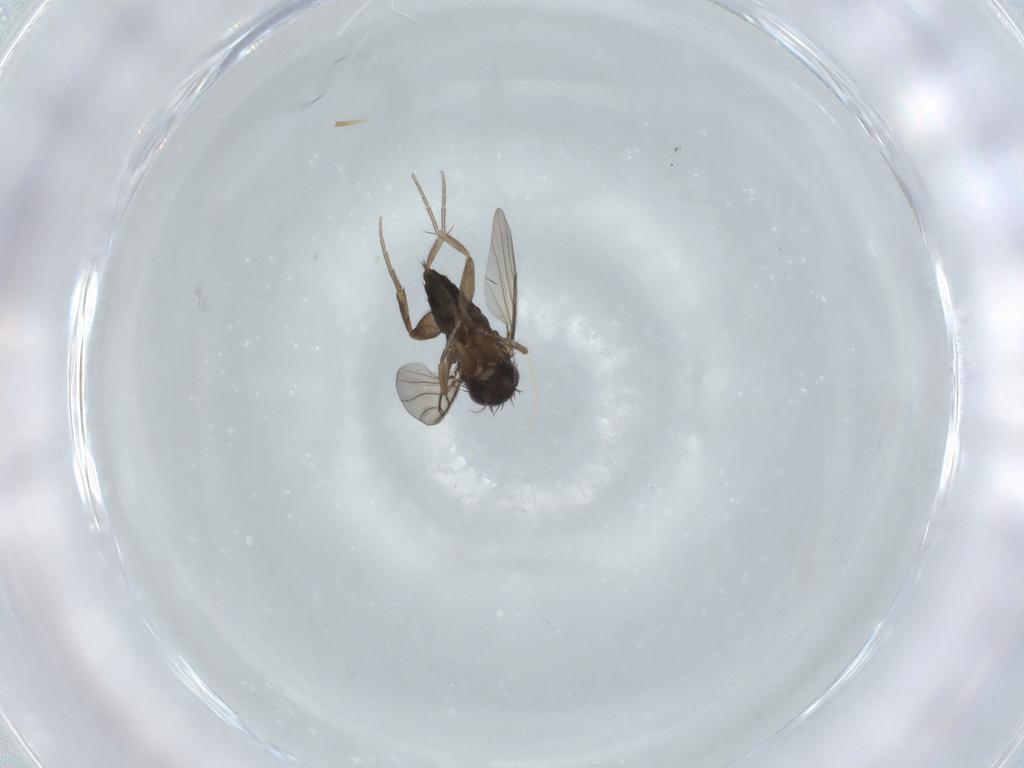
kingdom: Animalia
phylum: Arthropoda
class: Insecta
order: Diptera
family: Phoridae
